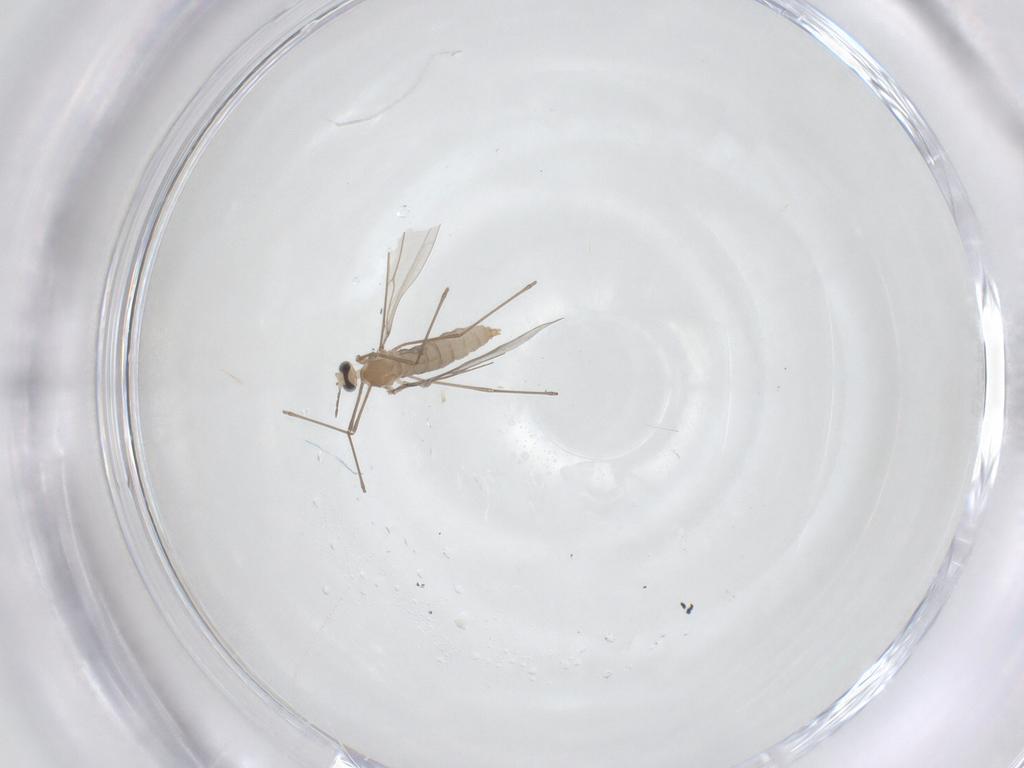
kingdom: Animalia
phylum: Arthropoda
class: Insecta
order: Diptera
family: Cecidomyiidae
